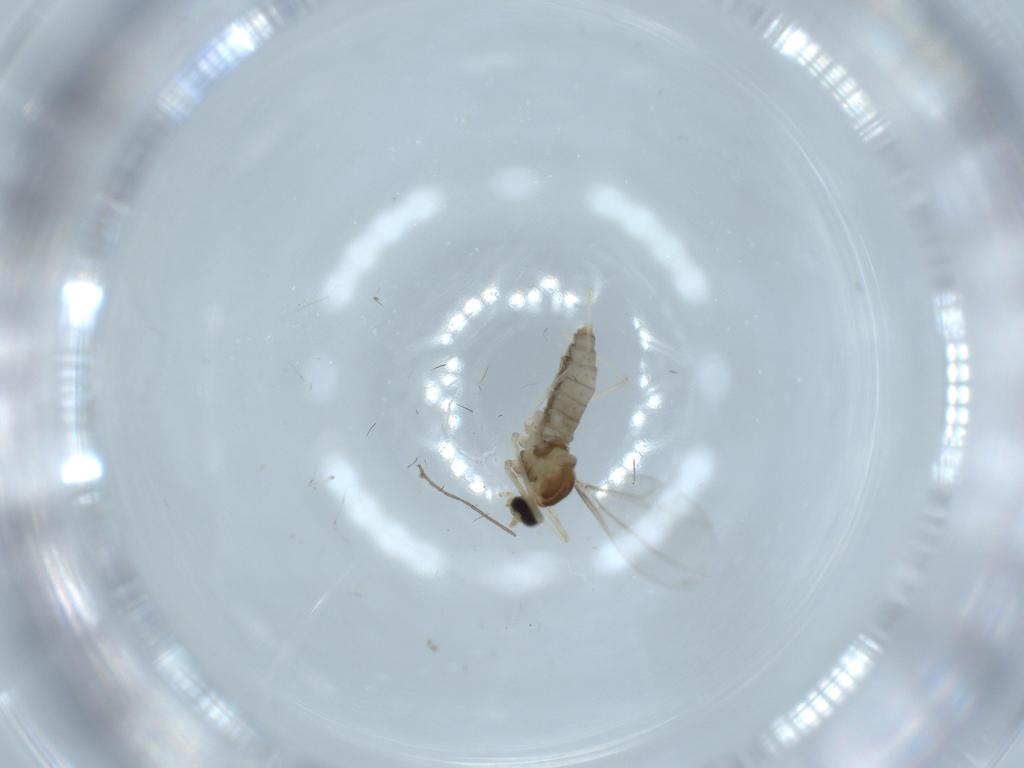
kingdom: Animalia
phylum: Arthropoda
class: Insecta
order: Diptera
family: Cecidomyiidae
